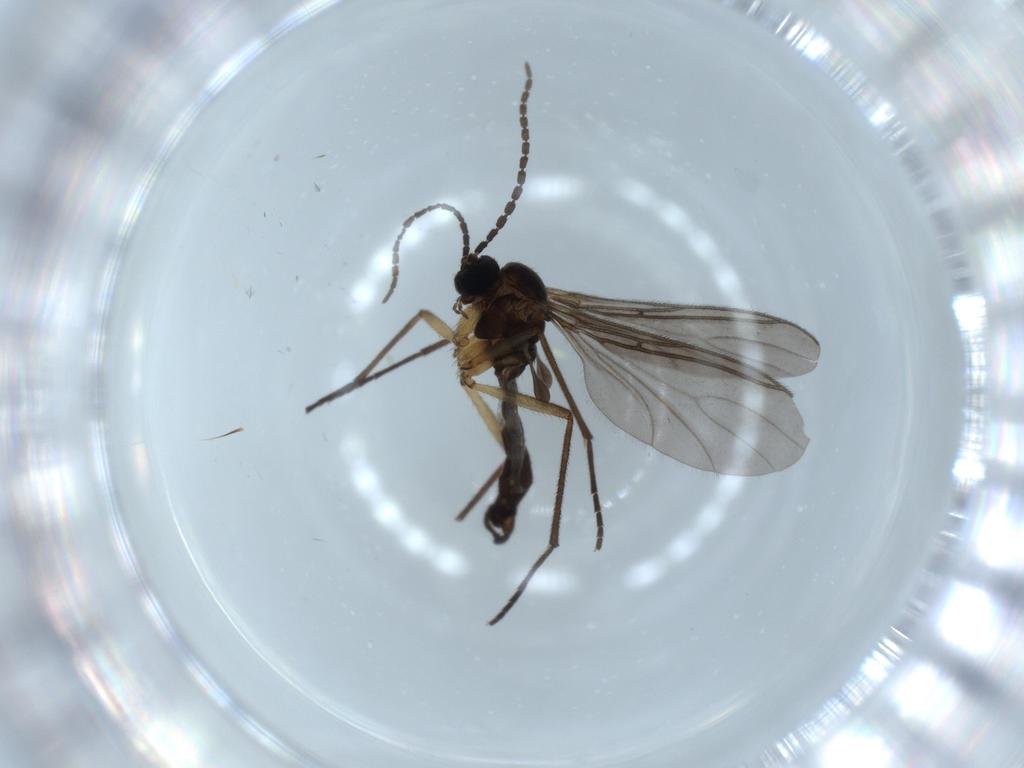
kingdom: Animalia
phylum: Arthropoda
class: Insecta
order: Diptera
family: Sciaridae
